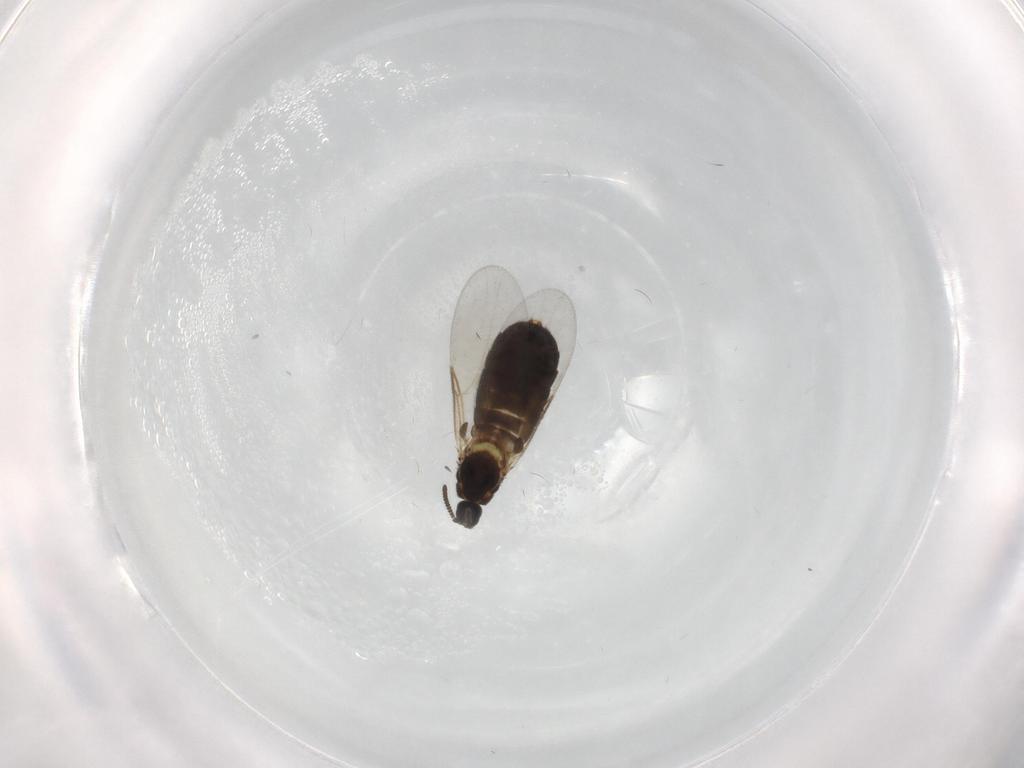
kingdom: Animalia
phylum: Arthropoda
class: Insecta
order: Diptera
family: Scatopsidae
